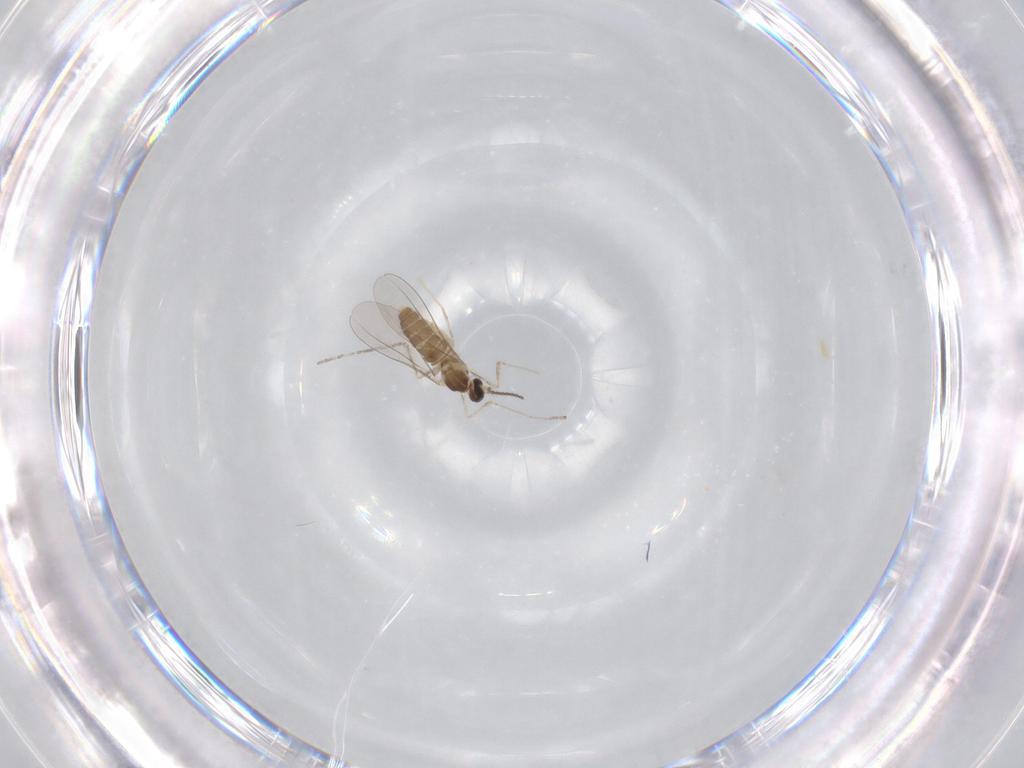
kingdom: Animalia
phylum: Arthropoda
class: Insecta
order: Diptera
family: Cecidomyiidae
